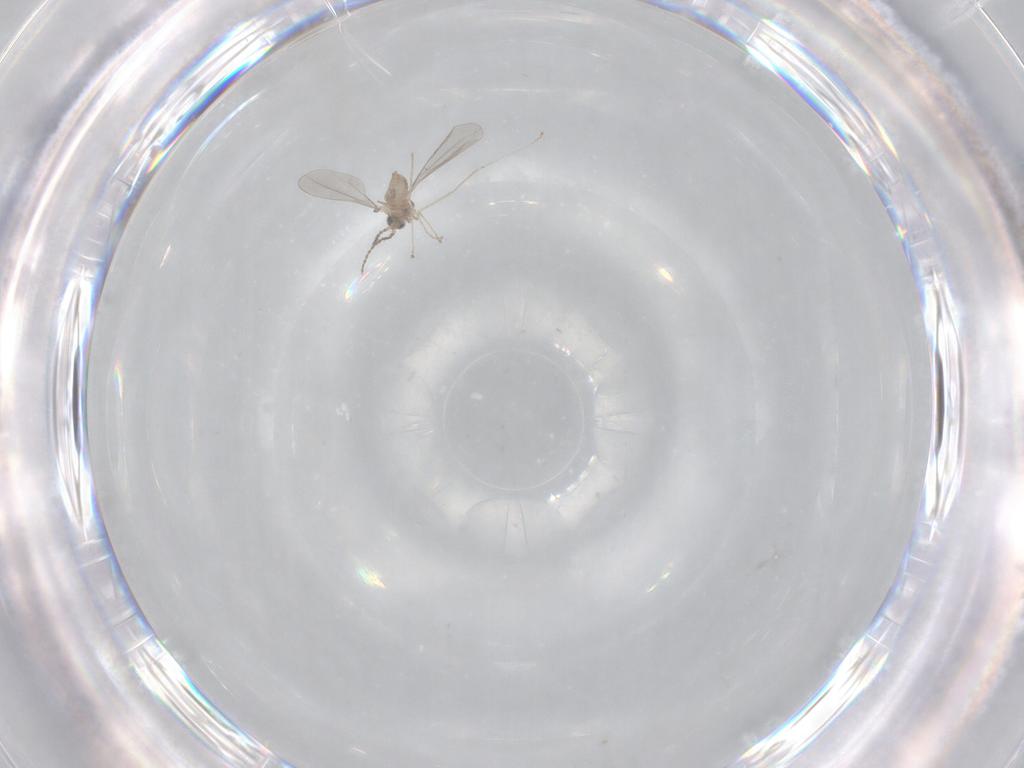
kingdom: Animalia
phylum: Arthropoda
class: Insecta
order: Diptera
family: Cecidomyiidae
